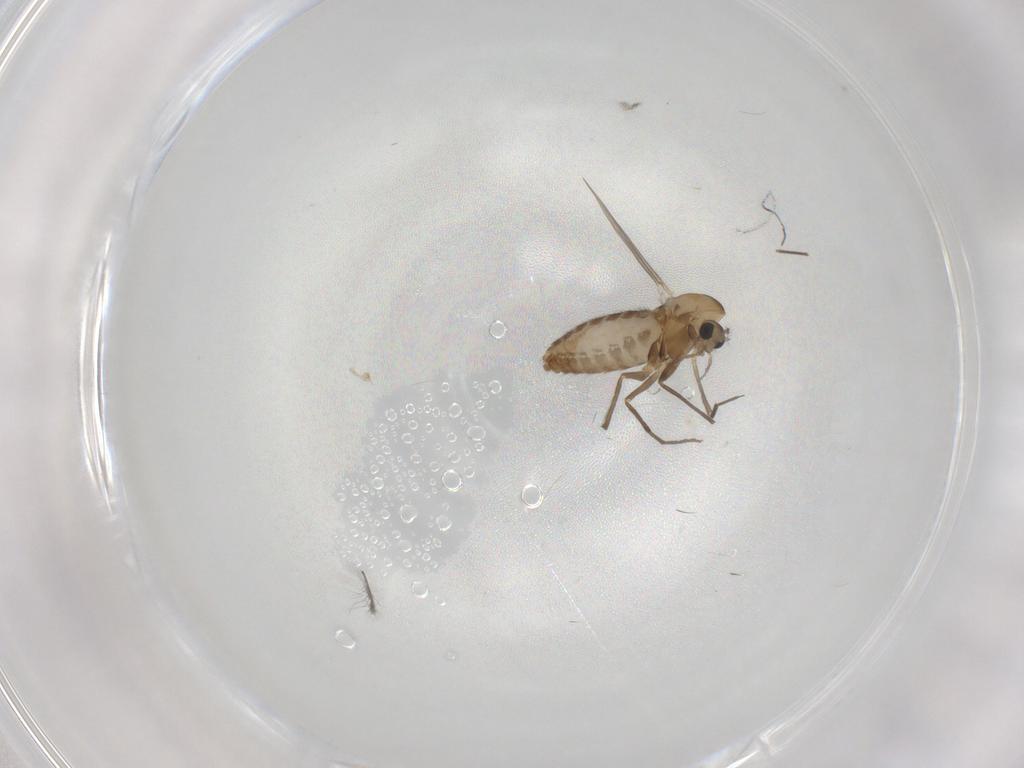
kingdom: Animalia
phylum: Arthropoda
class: Insecta
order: Diptera
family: Chironomidae
